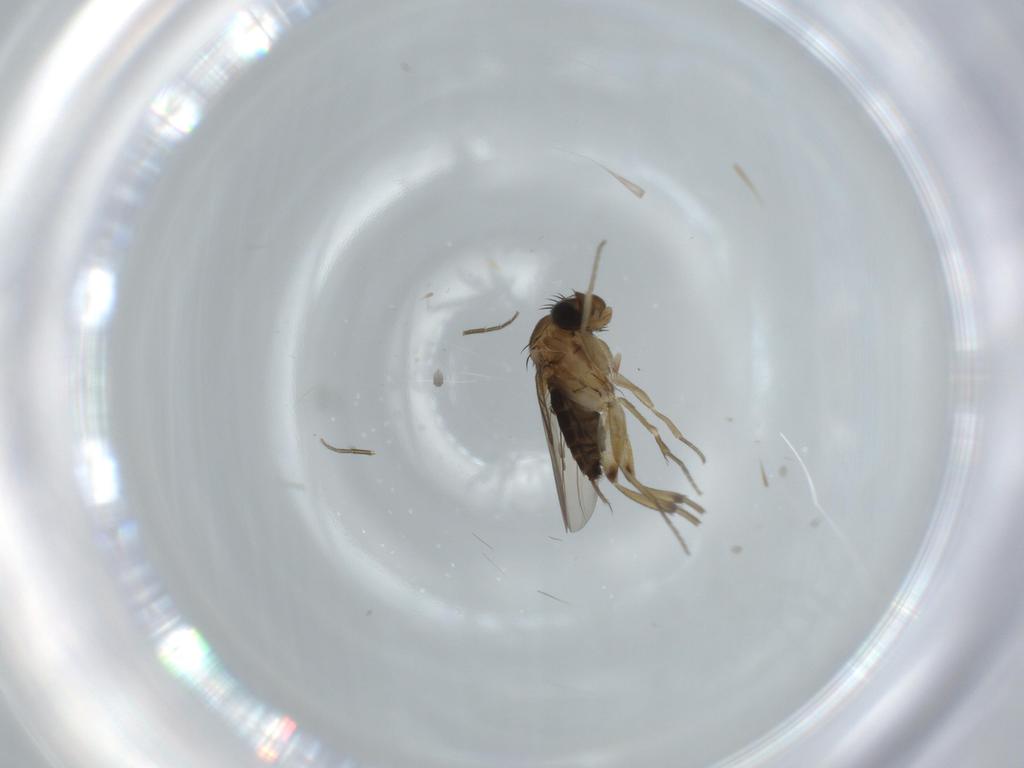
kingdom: Animalia
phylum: Arthropoda
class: Insecta
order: Diptera
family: Phoridae
